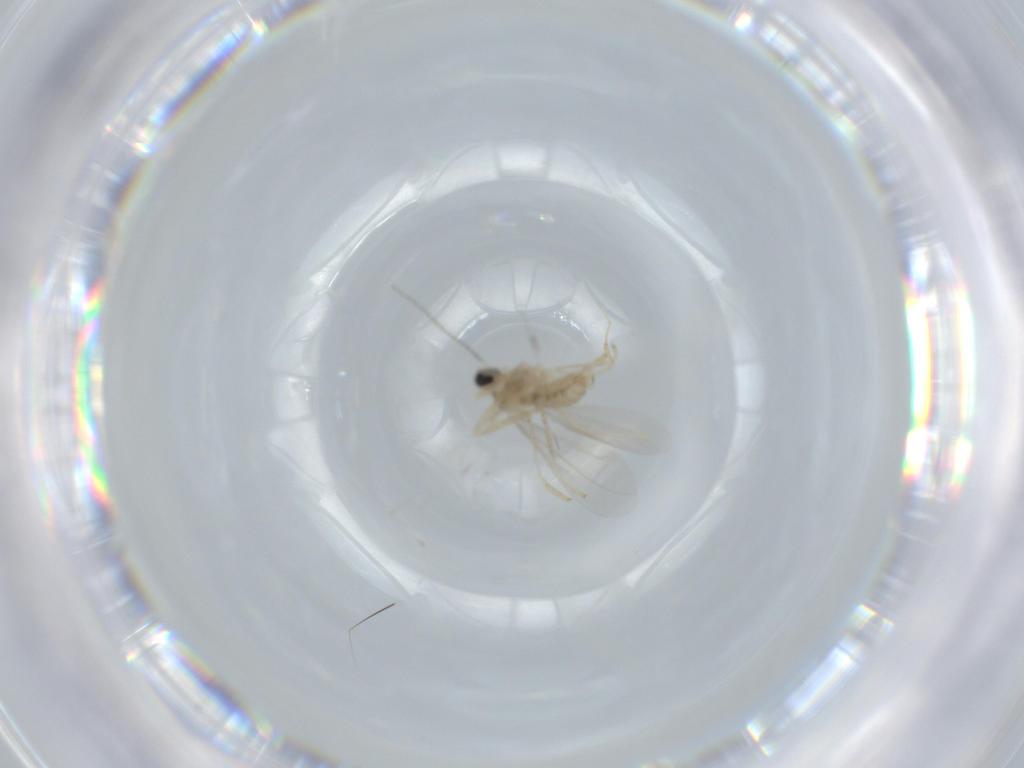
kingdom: Animalia
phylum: Arthropoda
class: Insecta
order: Diptera
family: Cecidomyiidae
